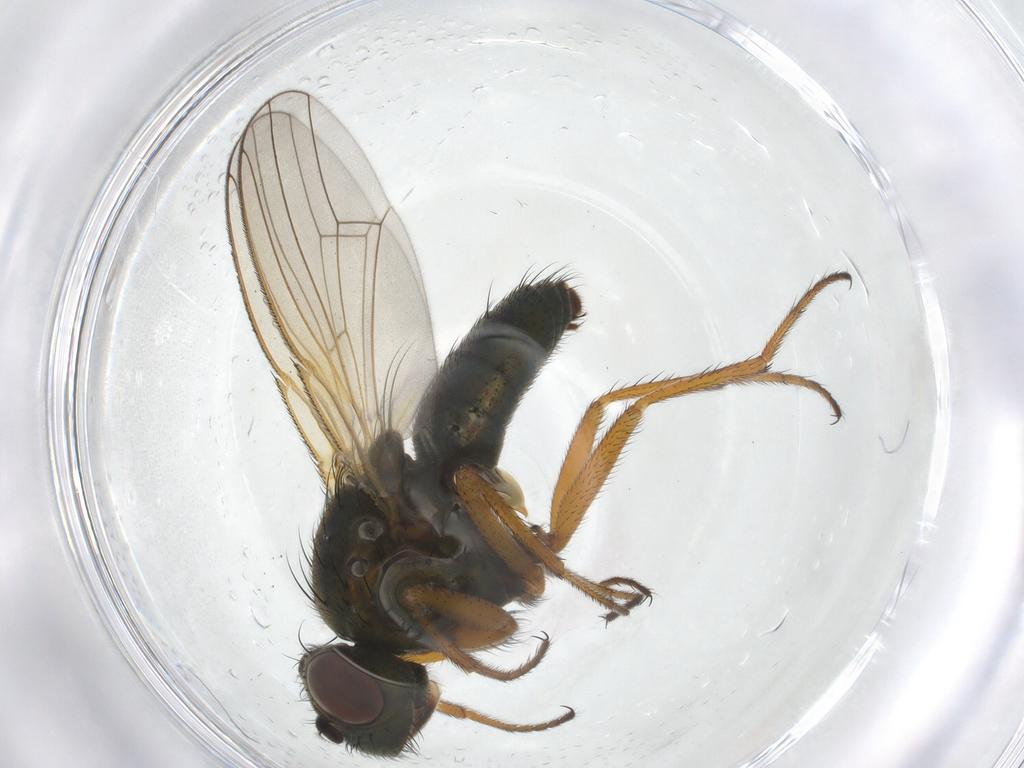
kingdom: Animalia
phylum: Arthropoda
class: Insecta
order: Diptera
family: Ephydridae
